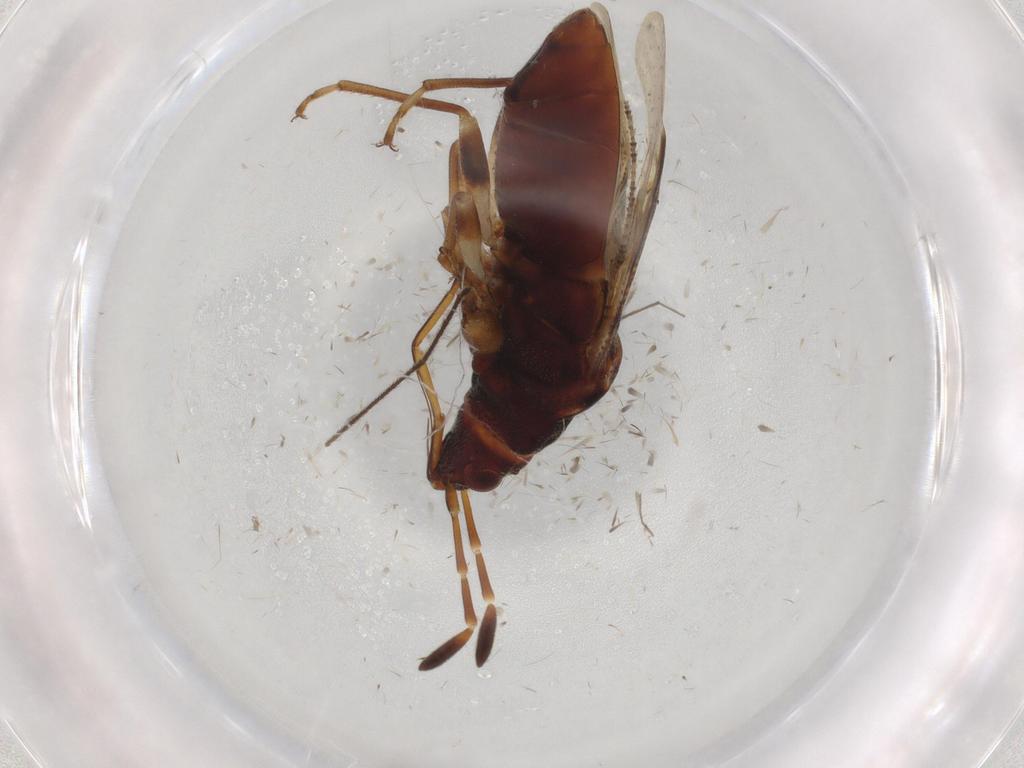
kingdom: Animalia
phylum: Arthropoda
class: Insecta
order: Hemiptera
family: Rhyparochromidae
